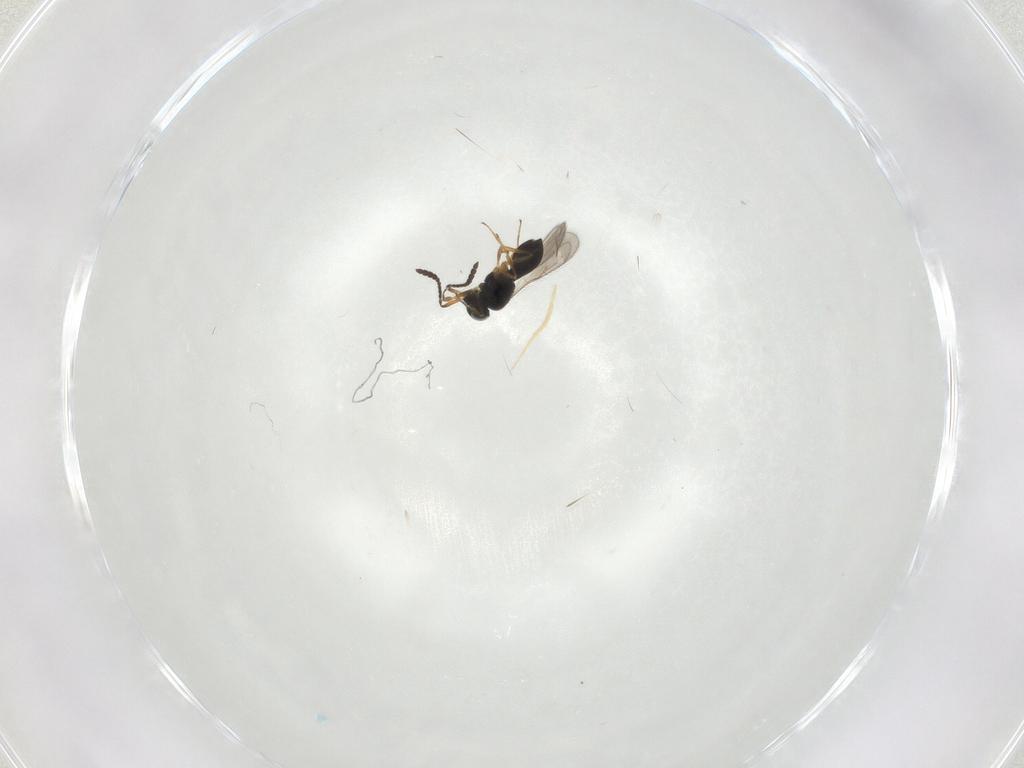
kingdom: Animalia
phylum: Arthropoda
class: Insecta
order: Hymenoptera
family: Scelionidae
